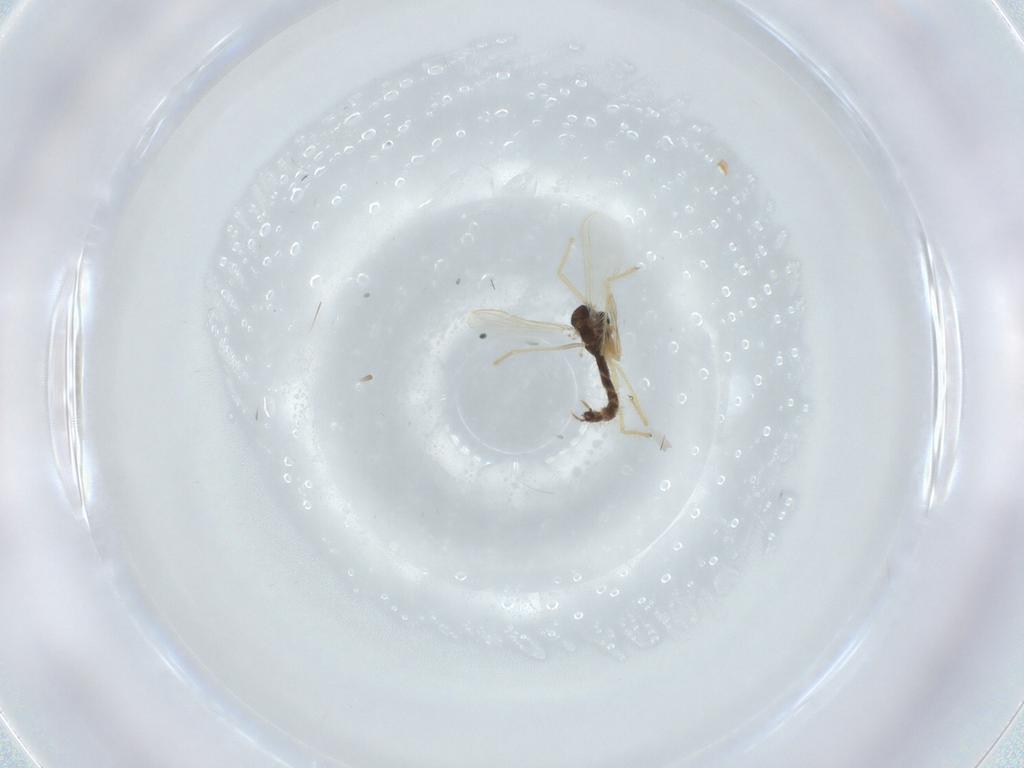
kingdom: Animalia
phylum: Arthropoda
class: Insecta
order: Diptera
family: Chironomidae
